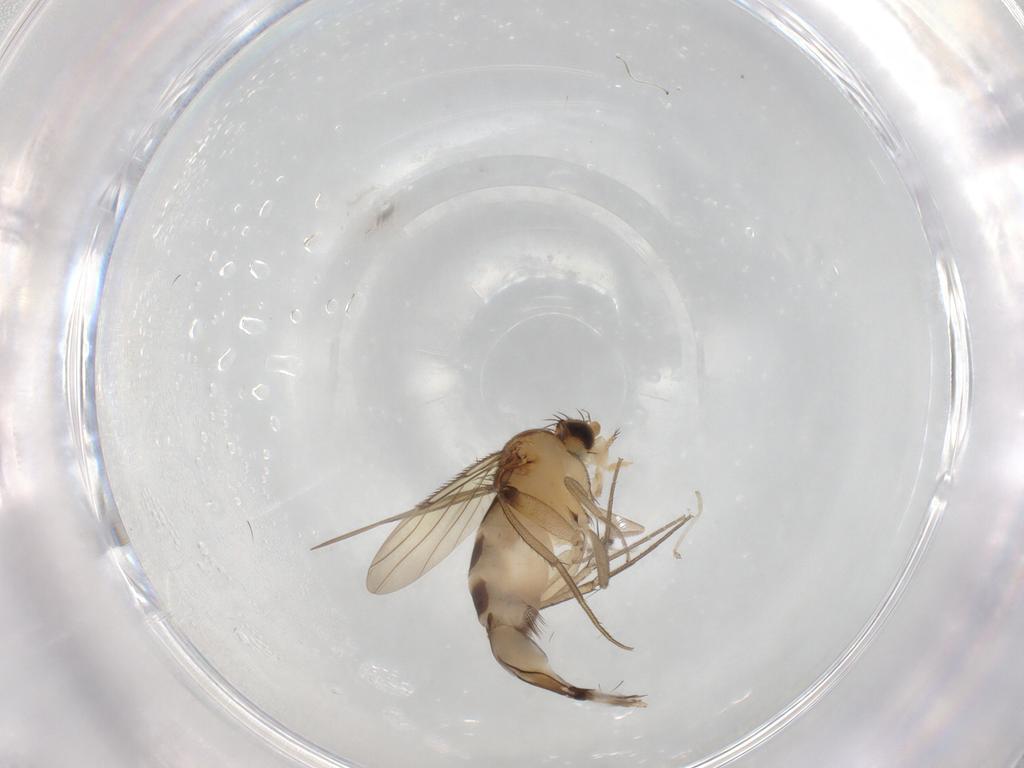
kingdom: Animalia
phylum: Arthropoda
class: Insecta
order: Diptera
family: Phoridae
